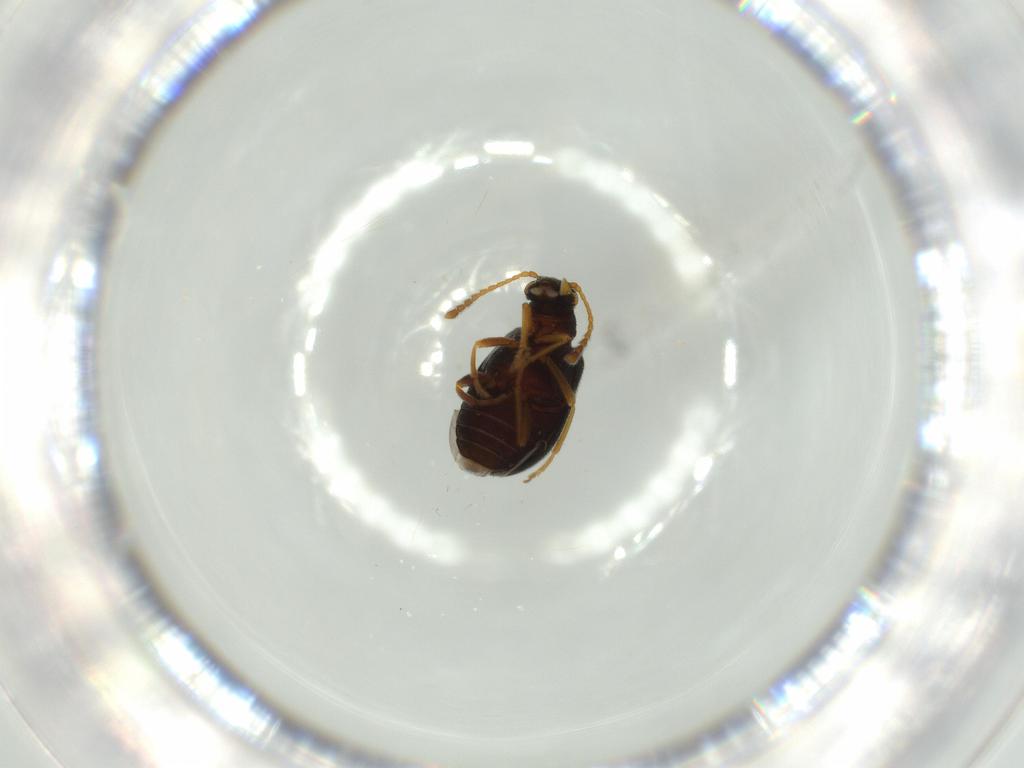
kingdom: Animalia
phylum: Arthropoda
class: Insecta
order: Coleoptera
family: Aderidae
